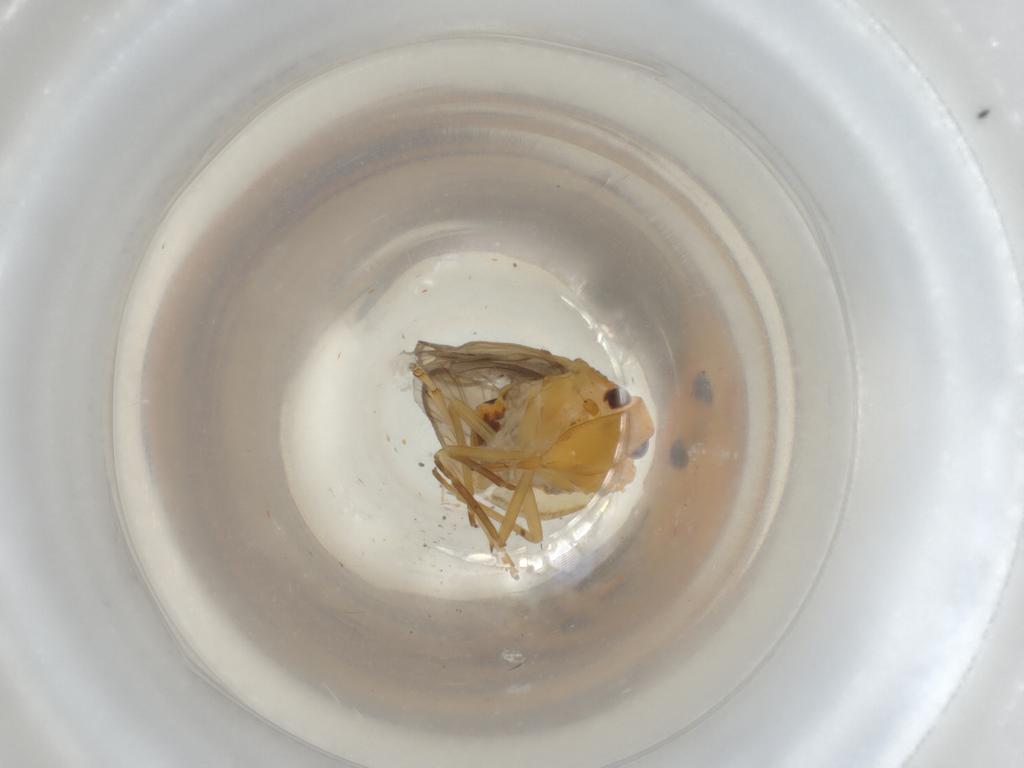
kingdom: Animalia
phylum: Arthropoda
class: Insecta
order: Hemiptera
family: Meenoplidae
